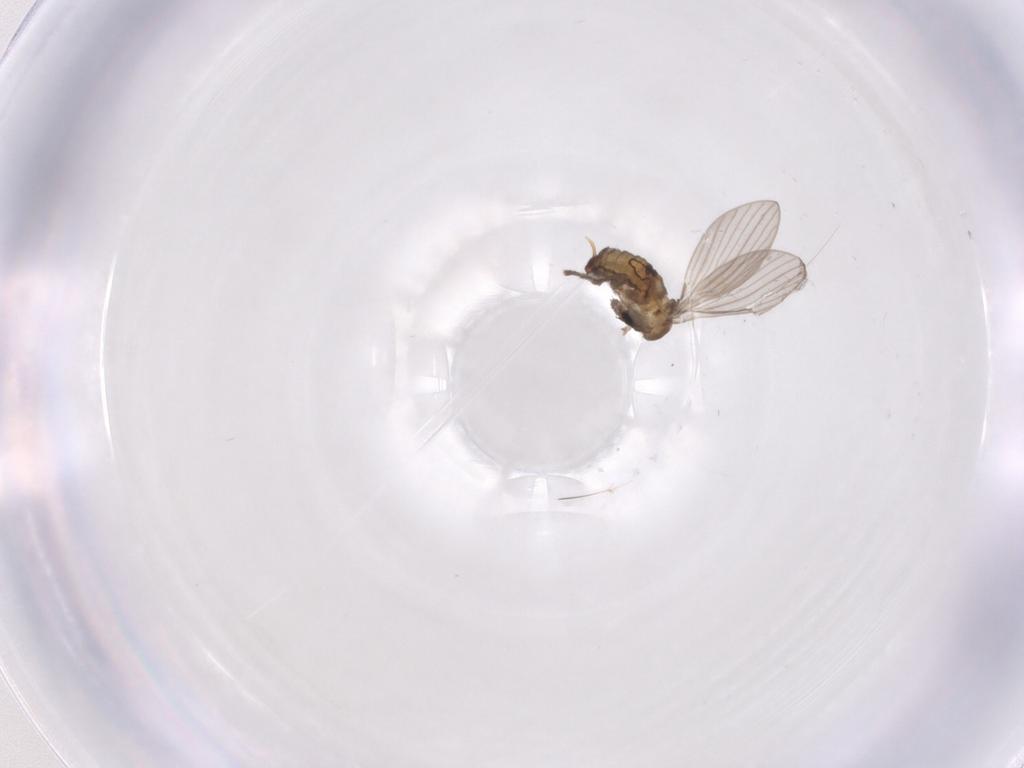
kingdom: Animalia
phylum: Arthropoda
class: Insecta
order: Diptera
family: Psychodidae
